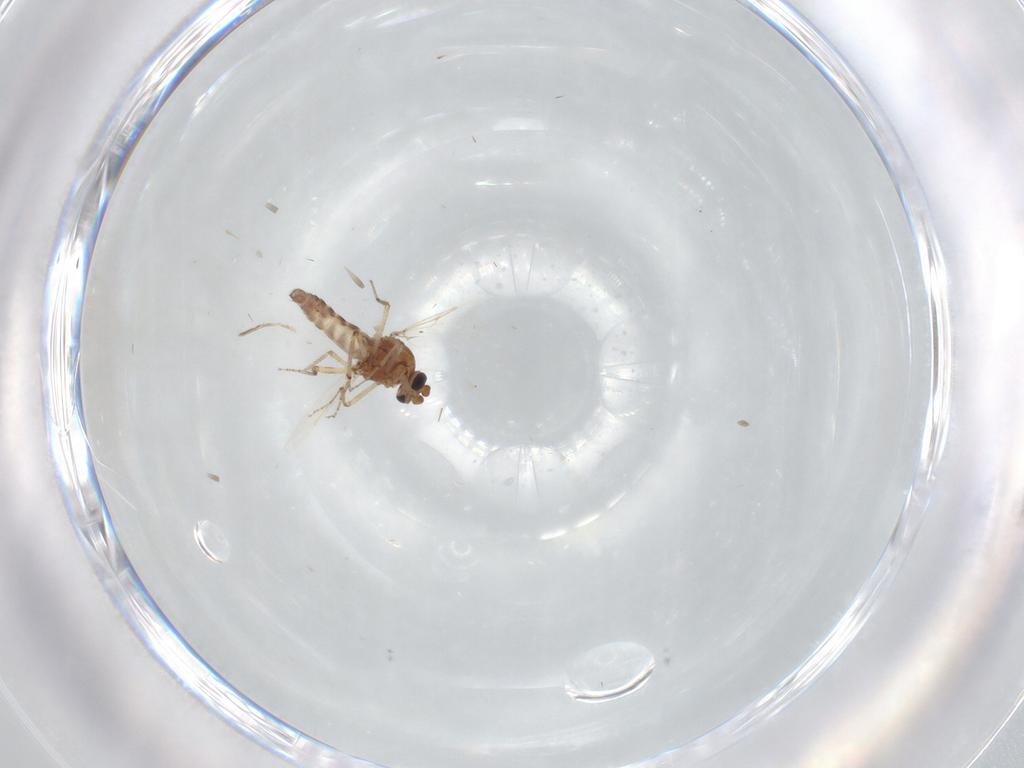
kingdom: Animalia
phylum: Arthropoda
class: Insecta
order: Diptera
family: Ceratopogonidae
